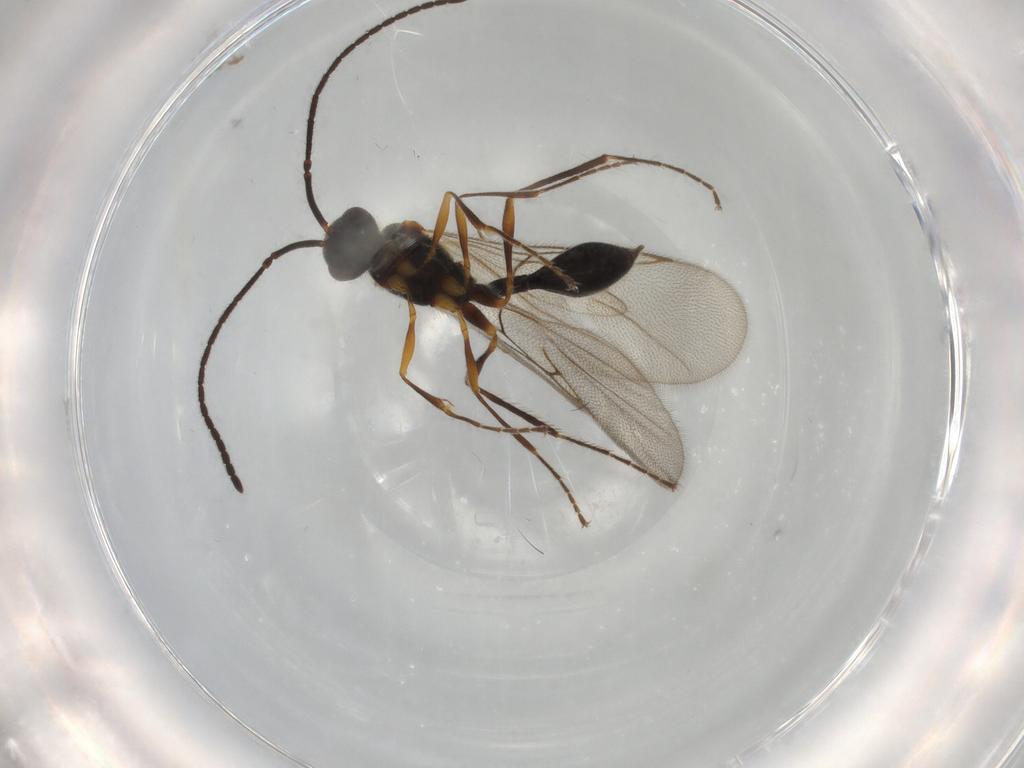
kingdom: Animalia
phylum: Arthropoda
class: Insecta
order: Hymenoptera
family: Diapriidae
